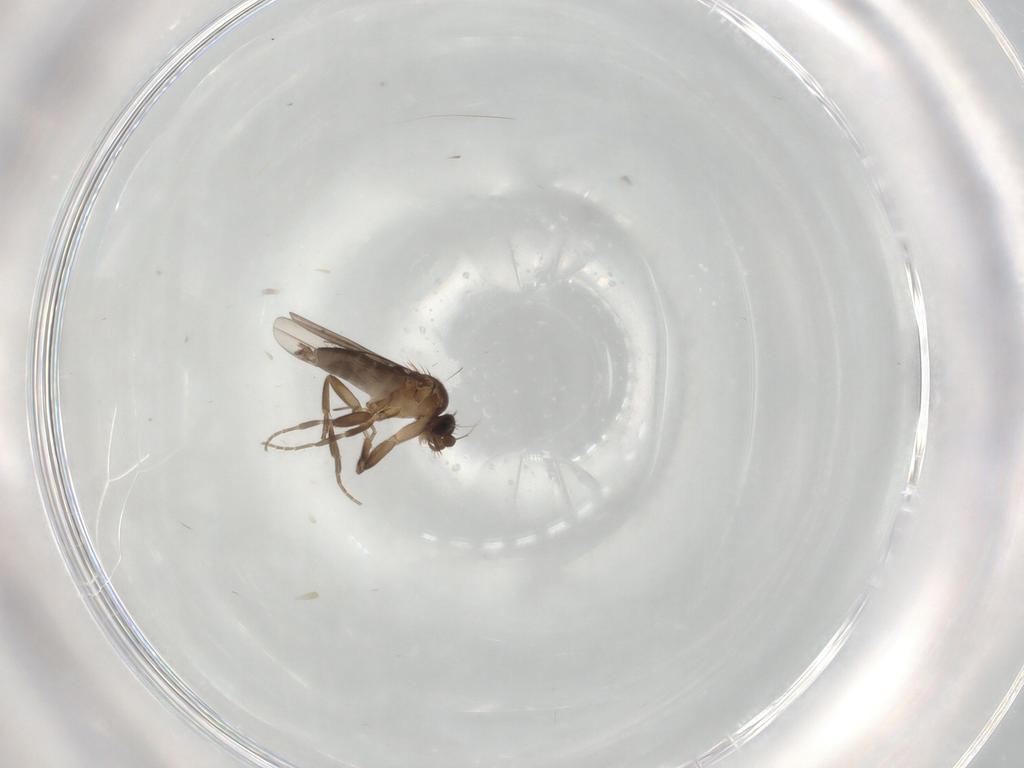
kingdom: Animalia
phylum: Arthropoda
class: Insecta
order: Diptera
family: Phoridae
